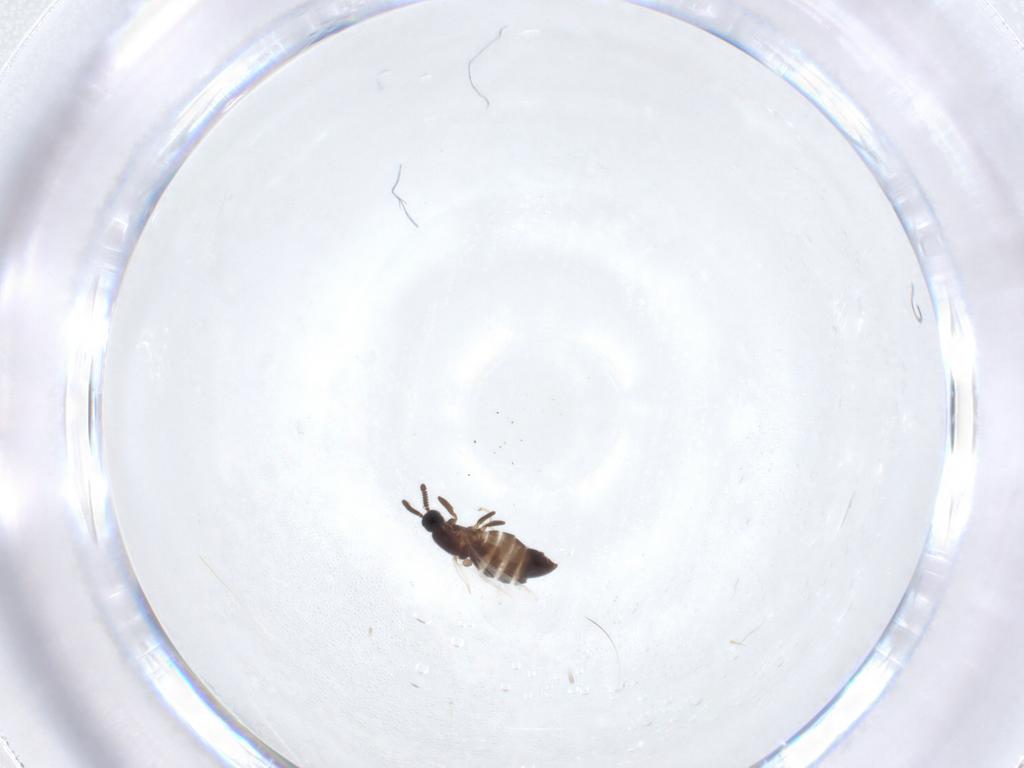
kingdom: Animalia
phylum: Arthropoda
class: Insecta
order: Diptera
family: Scatopsidae
